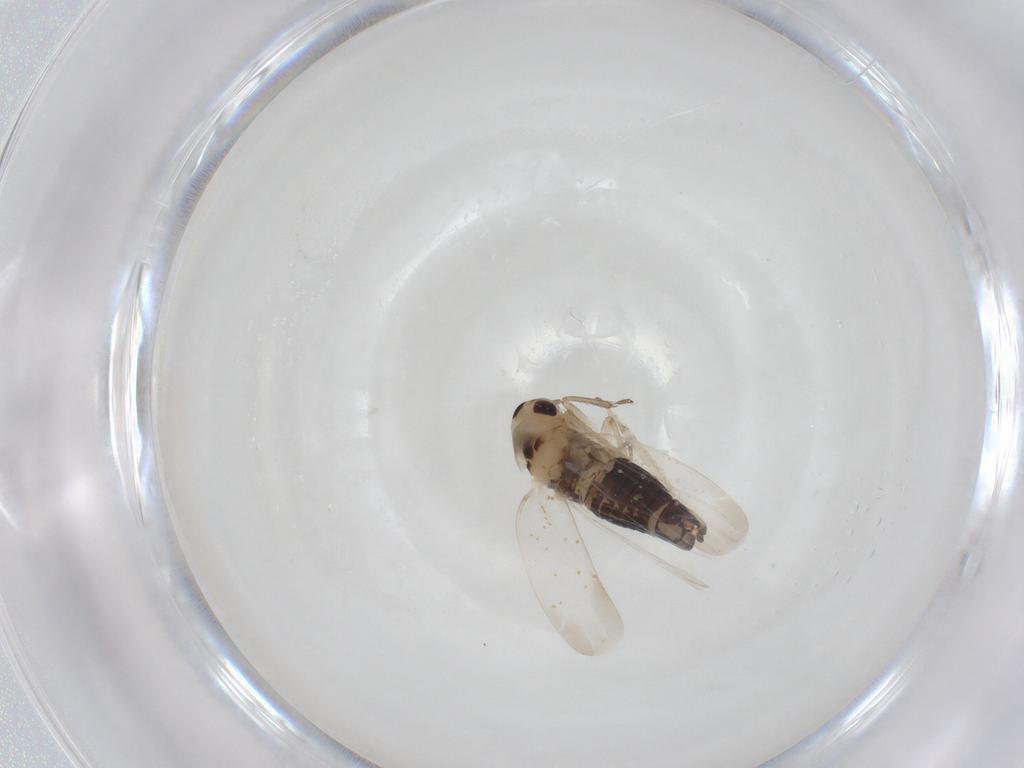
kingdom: Animalia
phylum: Arthropoda
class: Insecta
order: Hemiptera
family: Cicadellidae
